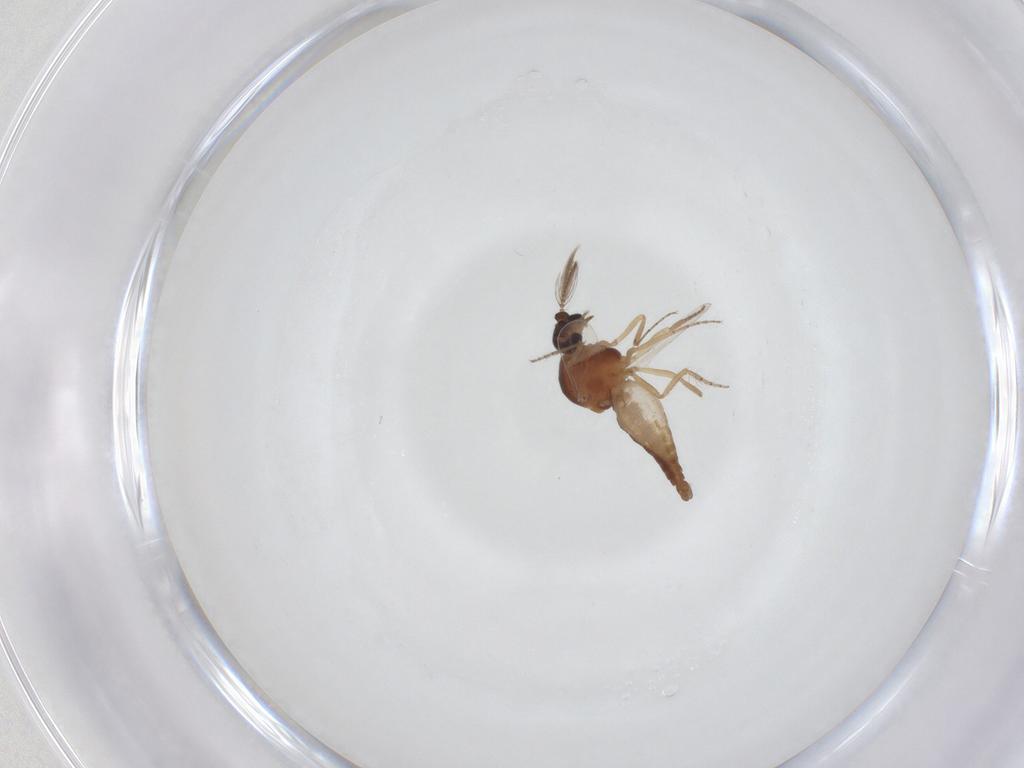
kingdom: Animalia
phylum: Arthropoda
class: Insecta
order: Diptera
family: Ceratopogonidae
